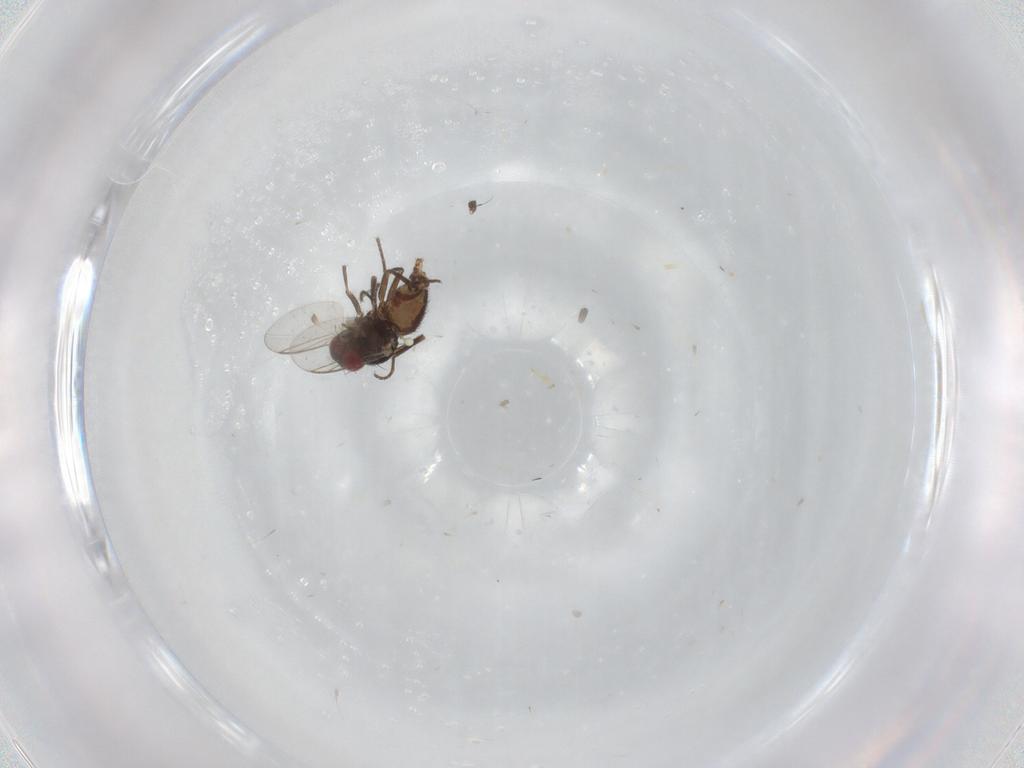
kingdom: Animalia
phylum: Arthropoda
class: Insecta
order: Diptera
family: Agromyzidae
